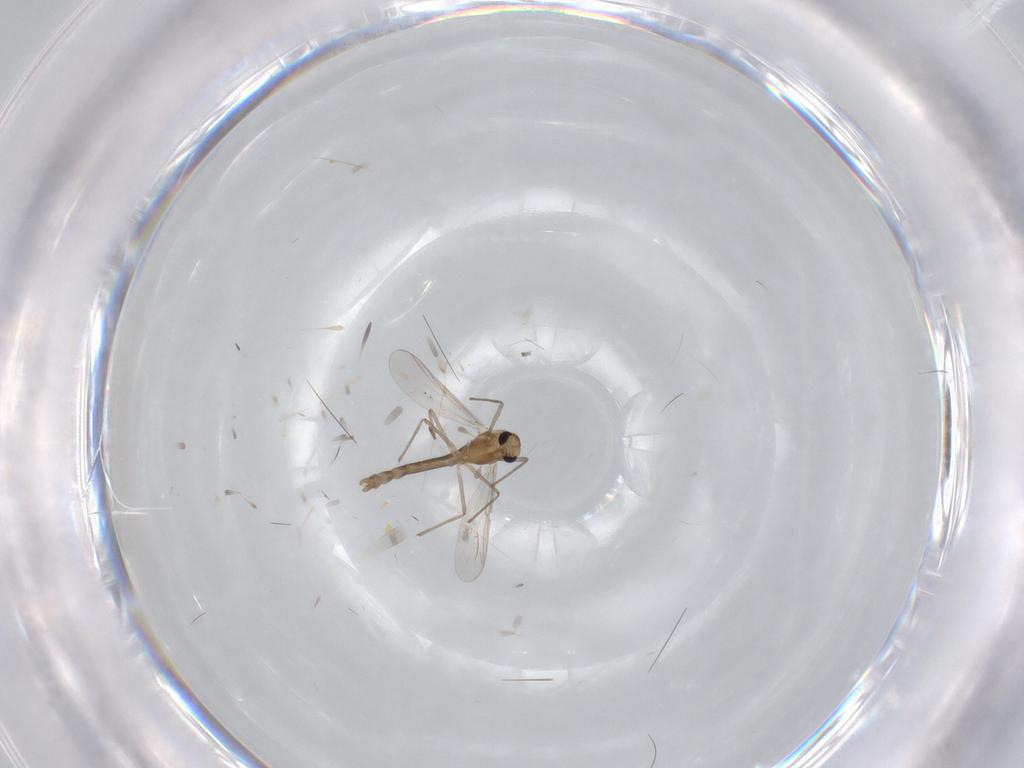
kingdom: Animalia
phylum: Arthropoda
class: Insecta
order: Diptera
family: Chironomidae
